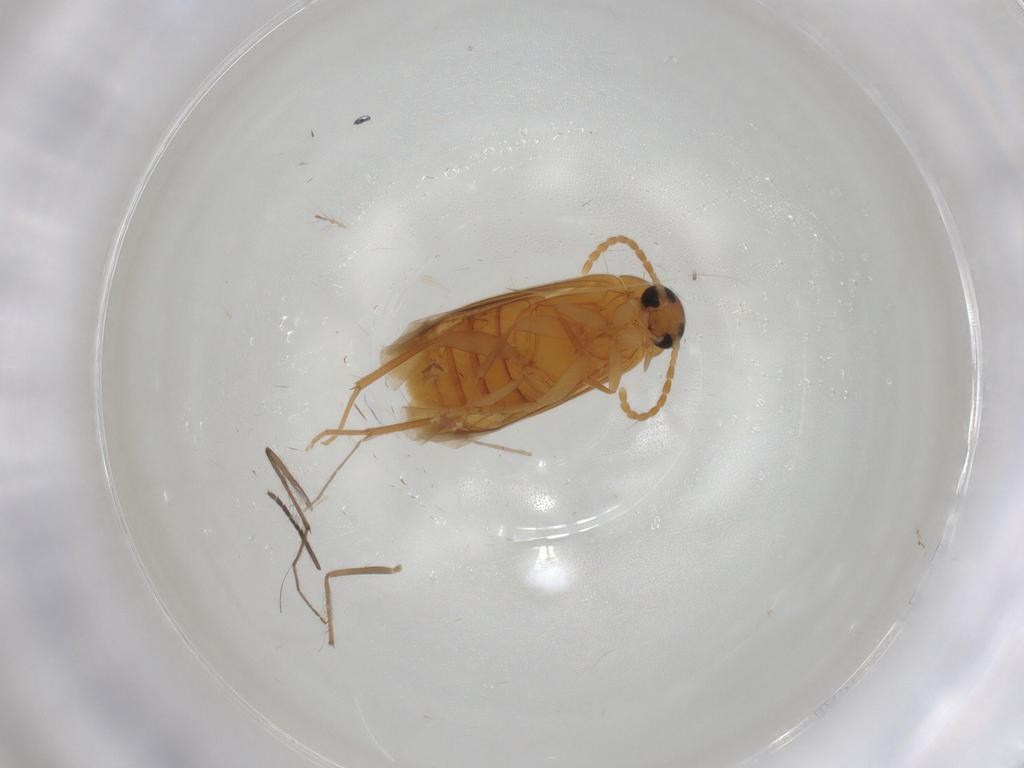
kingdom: Animalia
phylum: Arthropoda
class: Insecta
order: Coleoptera
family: Scraptiidae
